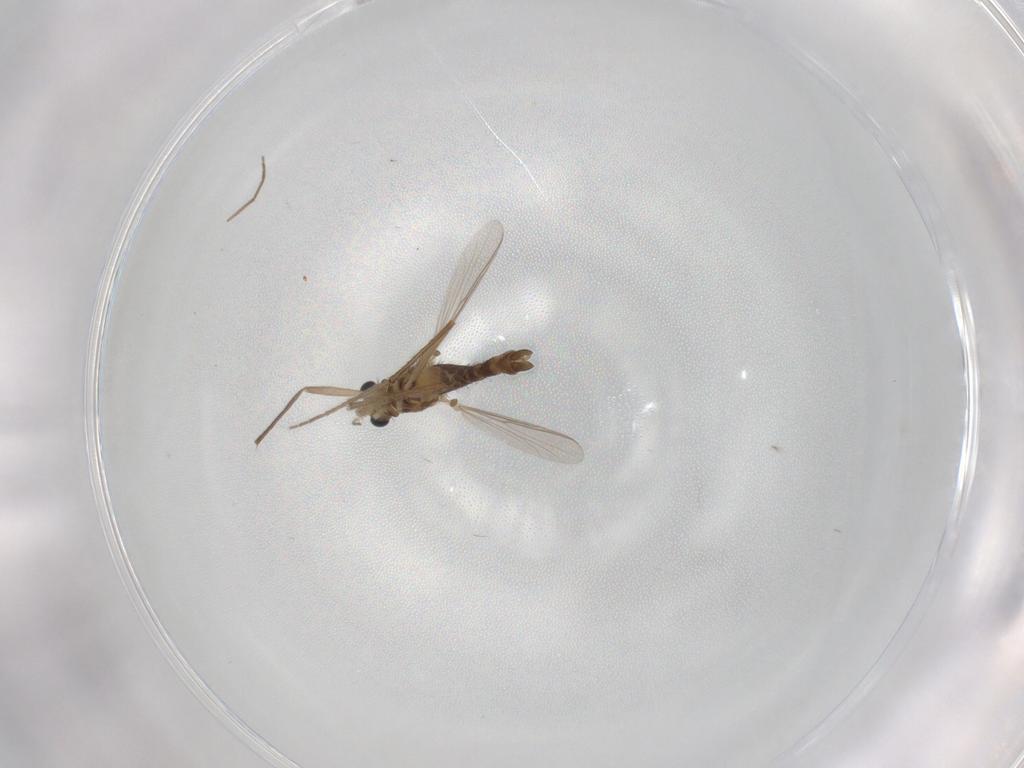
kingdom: Animalia
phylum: Arthropoda
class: Insecta
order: Diptera
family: Chironomidae
